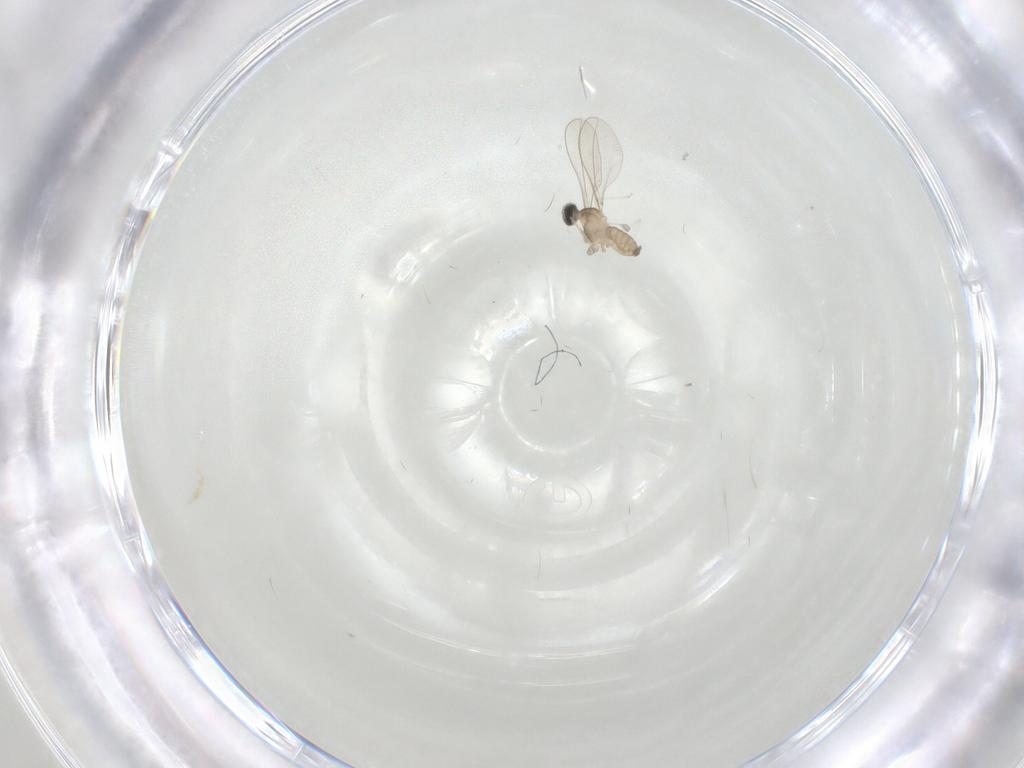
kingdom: Animalia
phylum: Arthropoda
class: Insecta
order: Diptera
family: Cecidomyiidae
